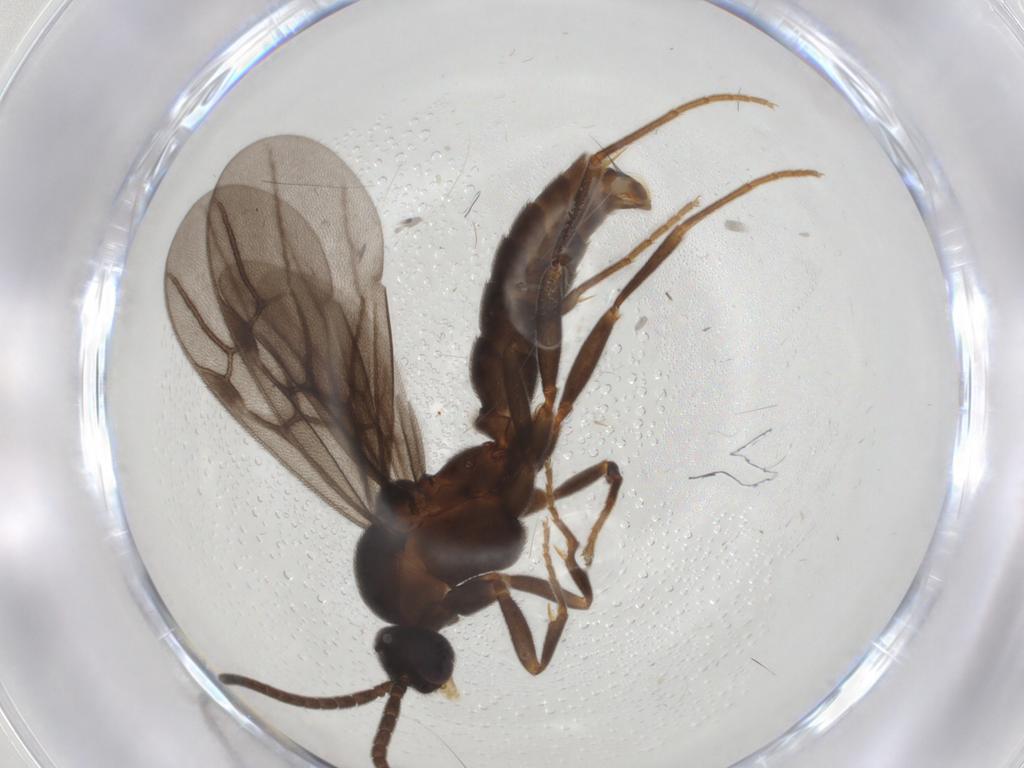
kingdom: Animalia
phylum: Arthropoda
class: Insecta
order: Hymenoptera
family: Formicidae
